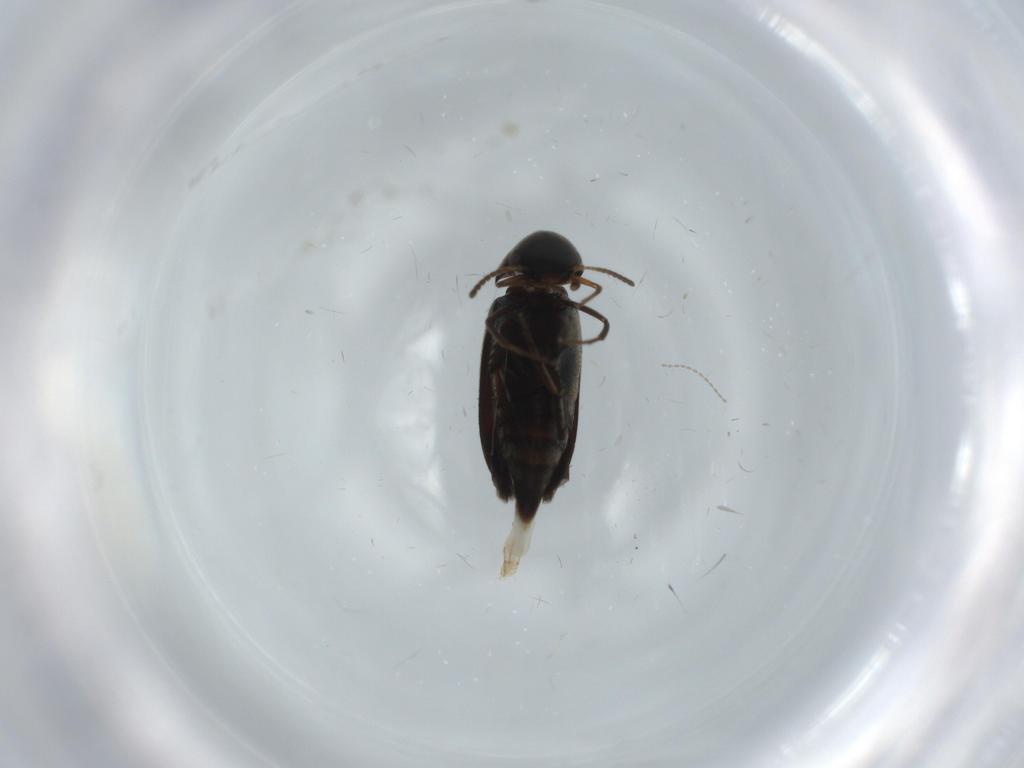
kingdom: Animalia
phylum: Arthropoda
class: Insecta
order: Coleoptera
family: Mordellidae
